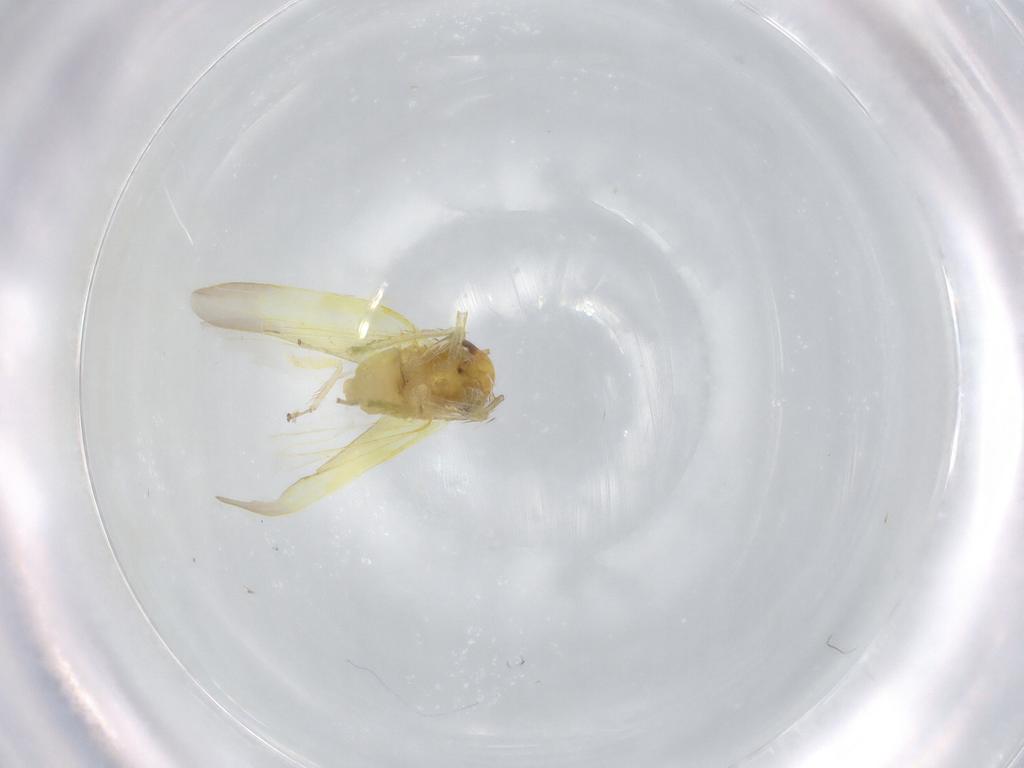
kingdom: Animalia
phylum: Arthropoda
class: Insecta
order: Hemiptera
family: Cicadellidae
